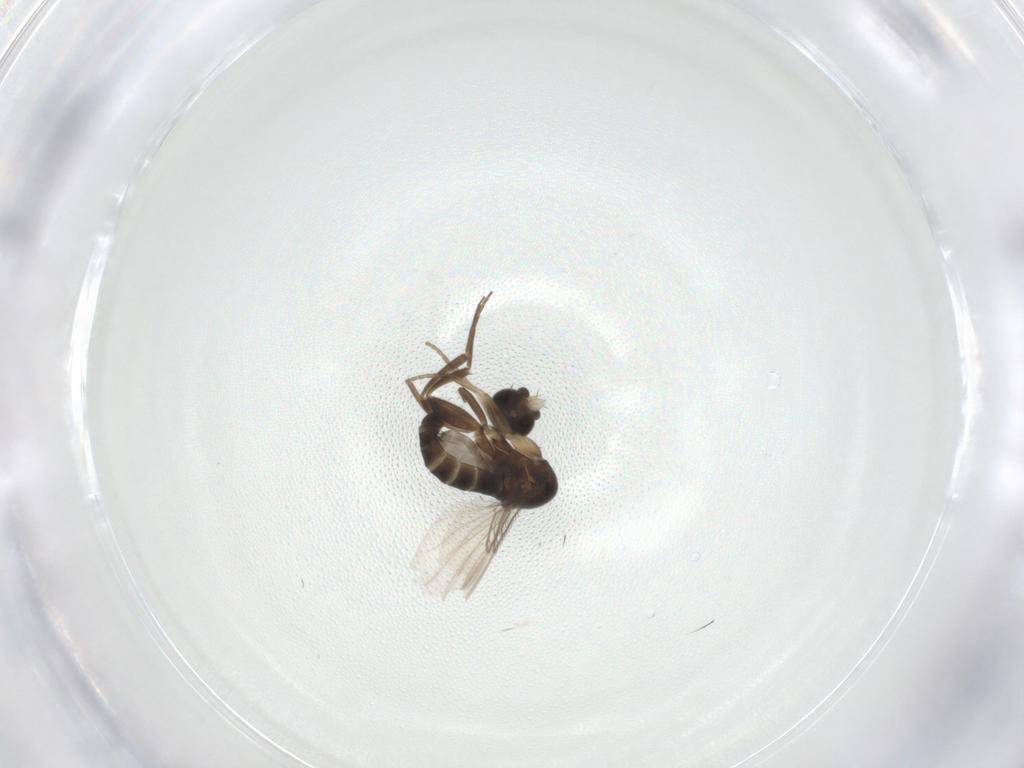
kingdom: Animalia
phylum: Arthropoda
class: Insecta
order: Diptera
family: Phoridae
